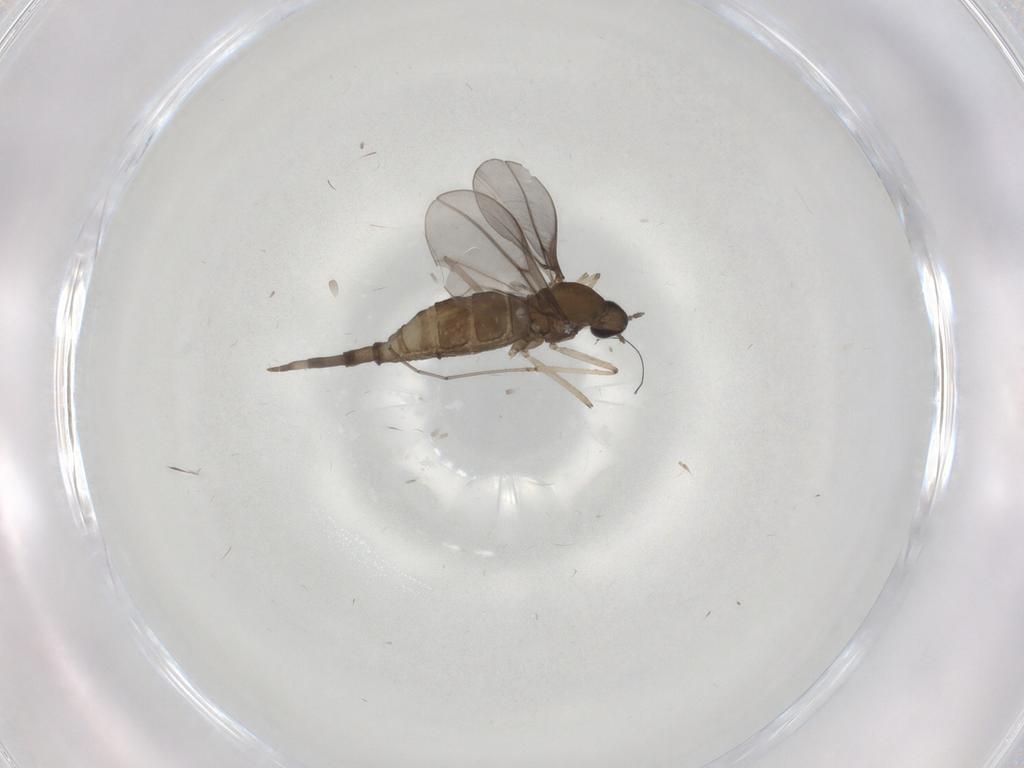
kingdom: Animalia
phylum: Arthropoda
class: Insecta
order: Diptera
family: Cecidomyiidae
